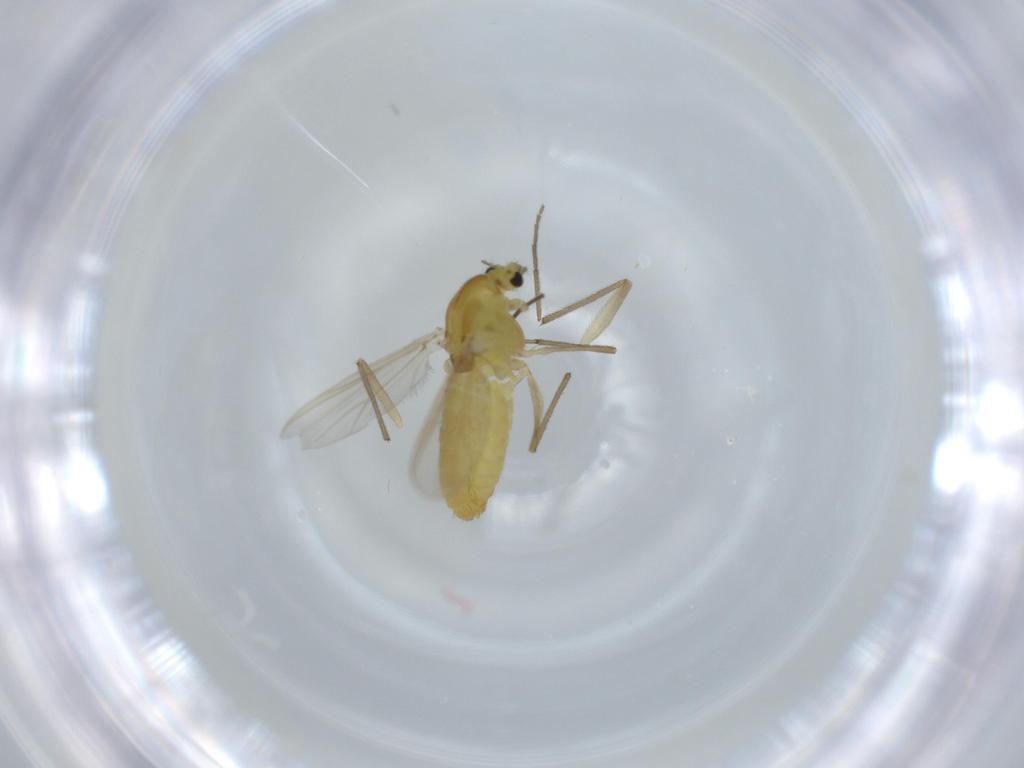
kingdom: Animalia
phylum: Arthropoda
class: Insecta
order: Diptera
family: Chironomidae
